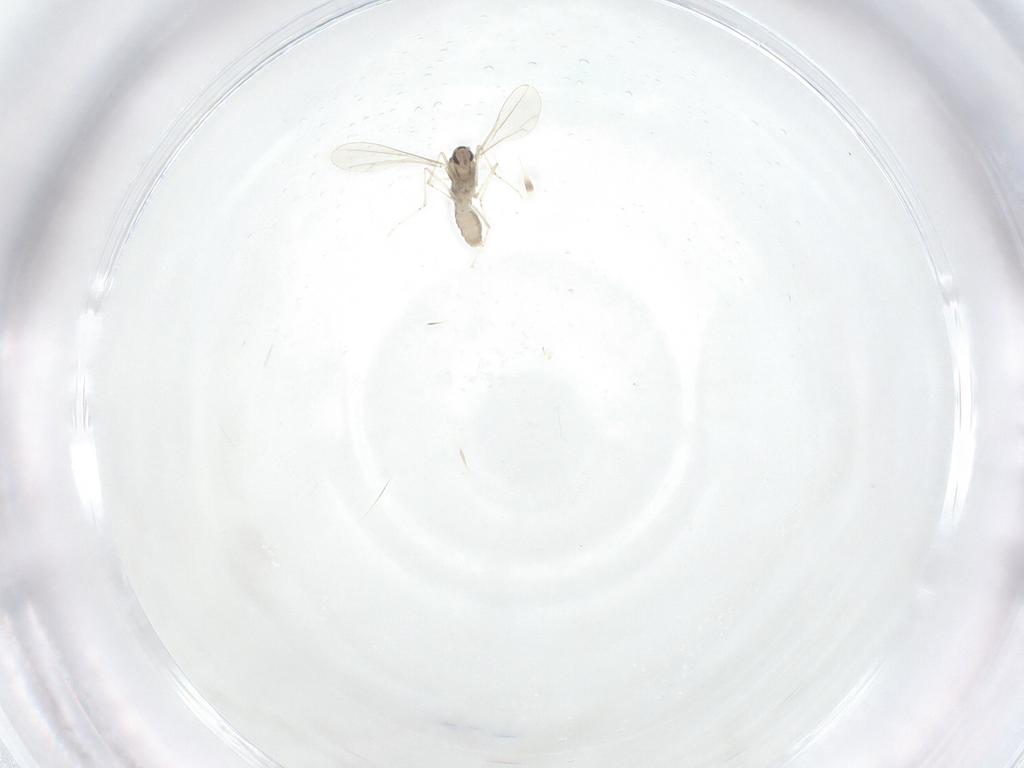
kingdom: Animalia
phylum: Arthropoda
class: Insecta
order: Diptera
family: Cecidomyiidae
